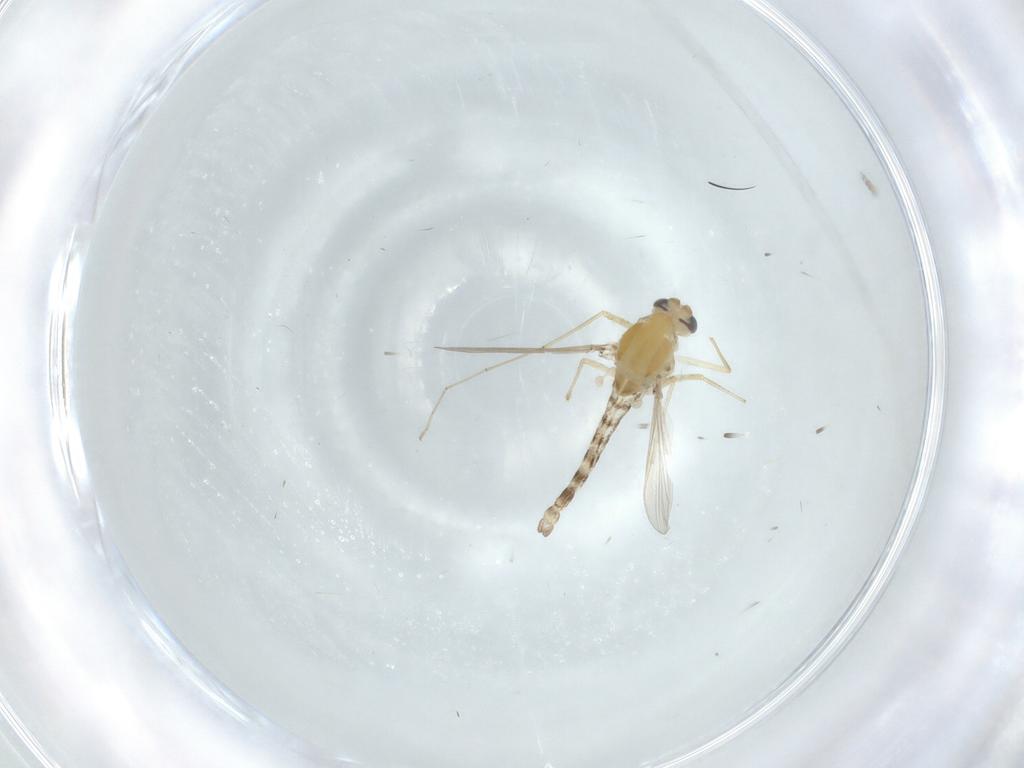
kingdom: Animalia
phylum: Arthropoda
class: Insecta
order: Diptera
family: Chironomidae
